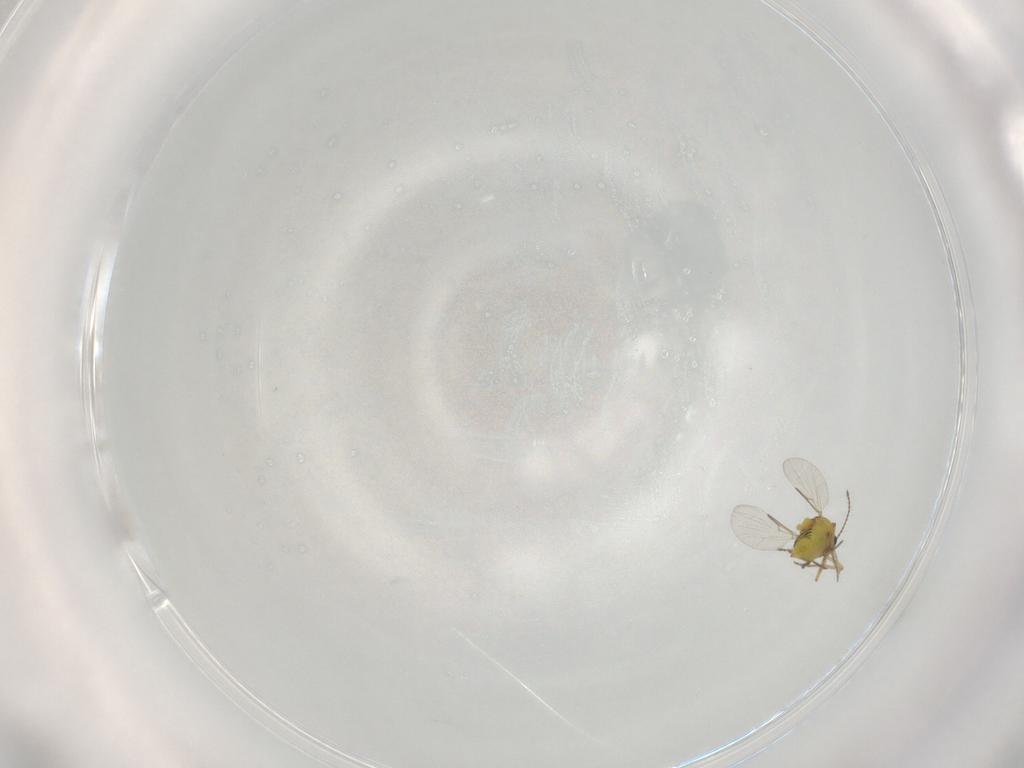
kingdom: Animalia
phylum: Arthropoda
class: Insecta
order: Diptera
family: Ceratopogonidae
